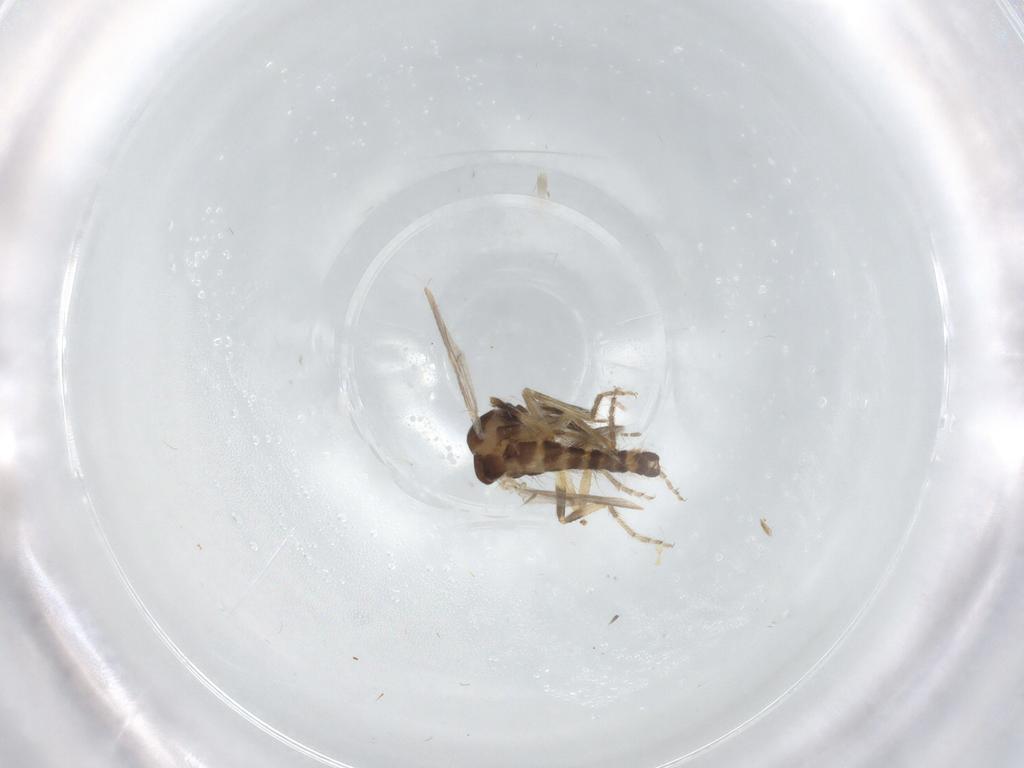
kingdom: Animalia
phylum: Arthropoda
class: Insecta
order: Diptera
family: Ceratopogonidae
